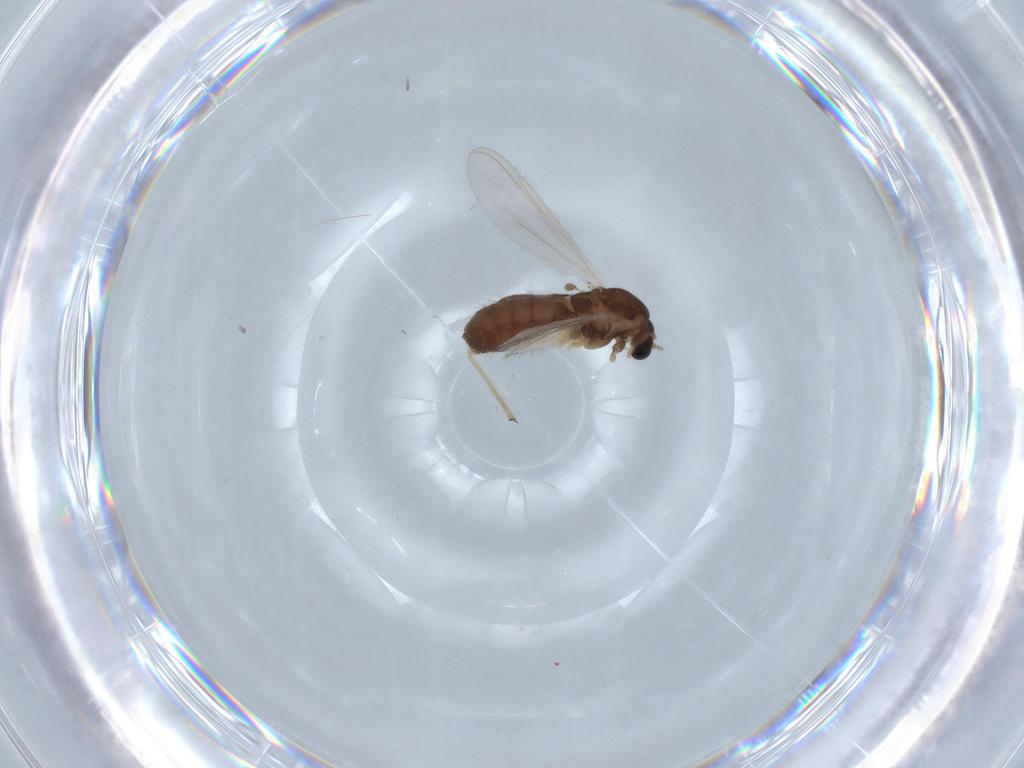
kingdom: Animalia
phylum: Arthropoda
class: Insecta
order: Diptera
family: Chironomidae
